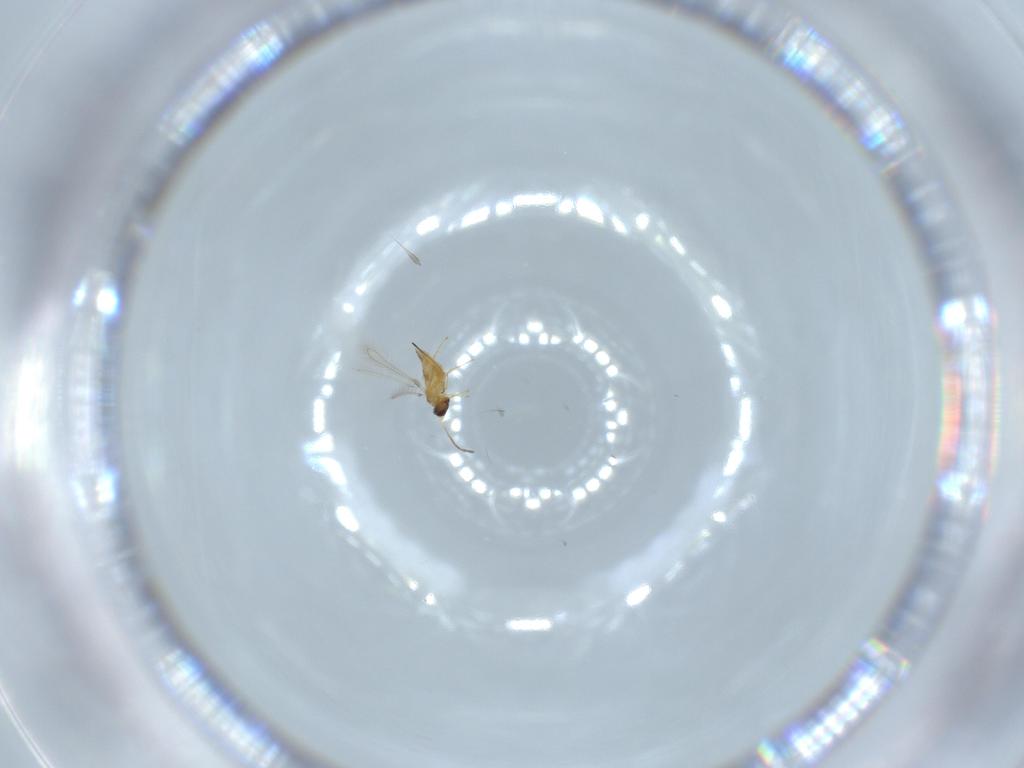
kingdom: Animalia
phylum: Arthropoda
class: Insecta
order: Hymenoptera
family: Mymaridae
